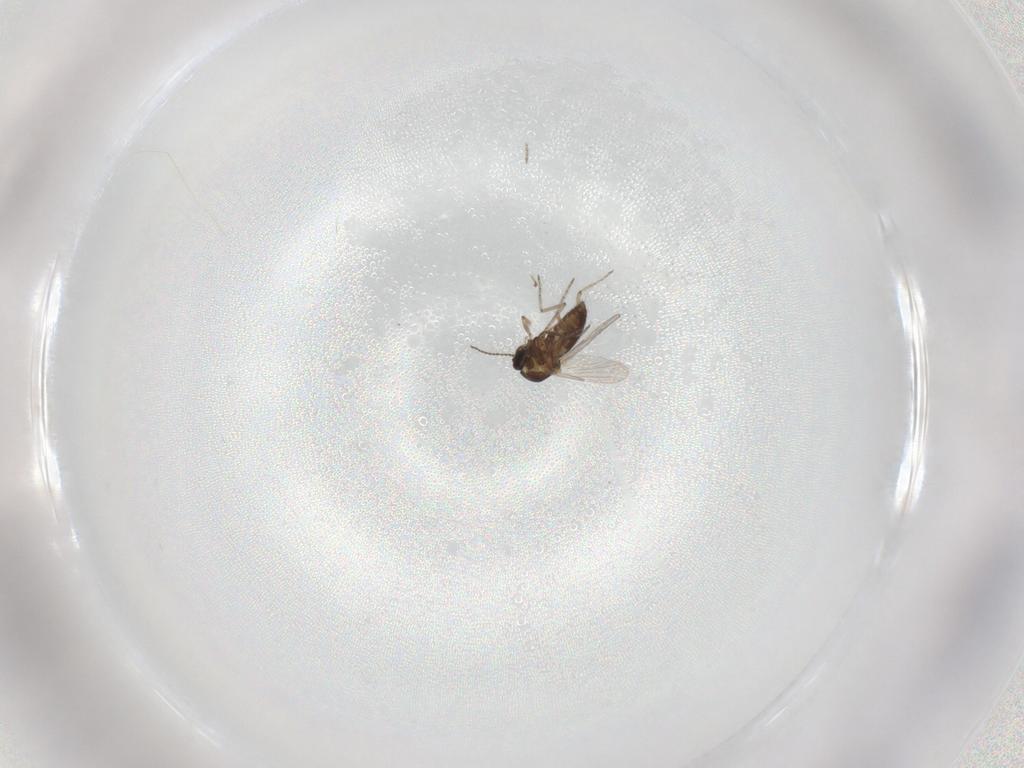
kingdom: Animalia
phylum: Arthropoda
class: Insecta
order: Diptera
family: Ceratopogonidae
